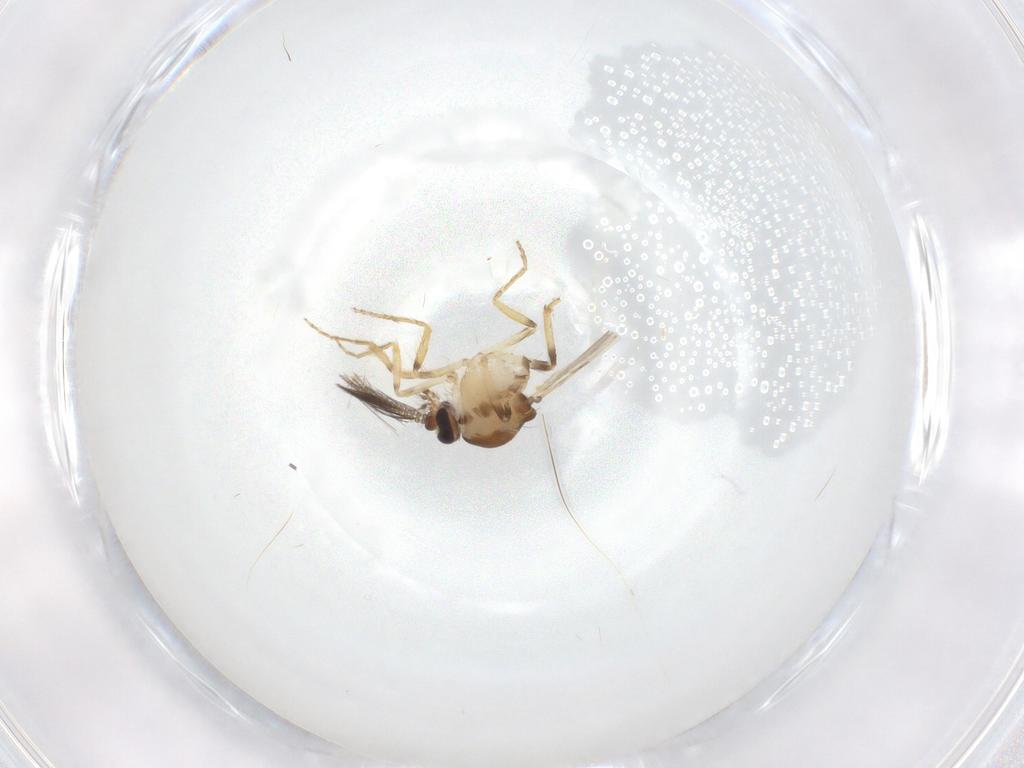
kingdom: Animalia
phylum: Arthropoda
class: Insecta
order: Diptera
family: Ceratopogonidae
